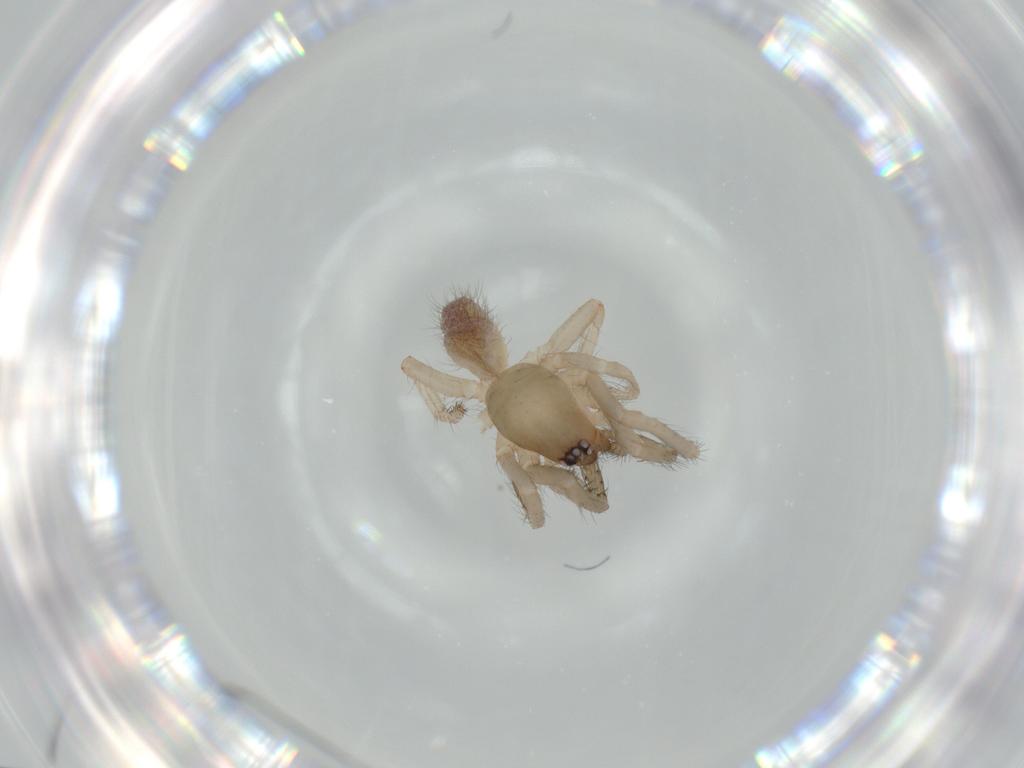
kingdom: Animalia
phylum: Arthropoda
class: Arachnida
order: Araneae
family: Segestriidae
